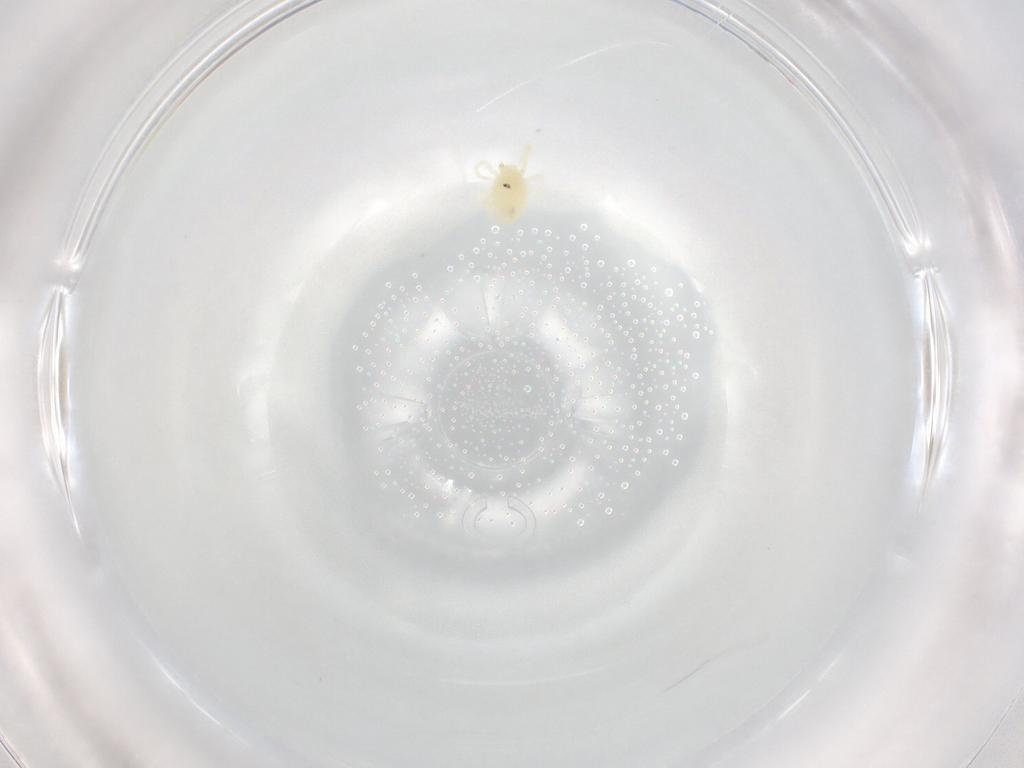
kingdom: Animalia
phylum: Arthropoda
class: Arachnida
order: Trombidiformes
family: Rhagidiidae
